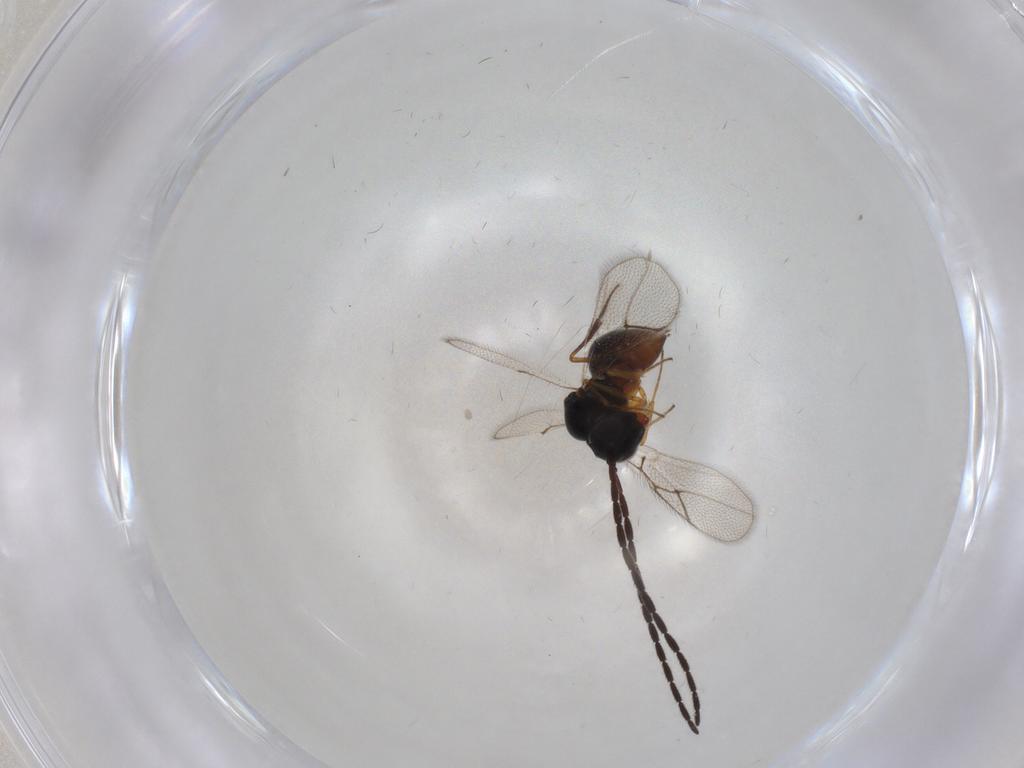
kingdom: Animalia
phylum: Arthropoda
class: Insecta
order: Hymenoptera
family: Figitidae
